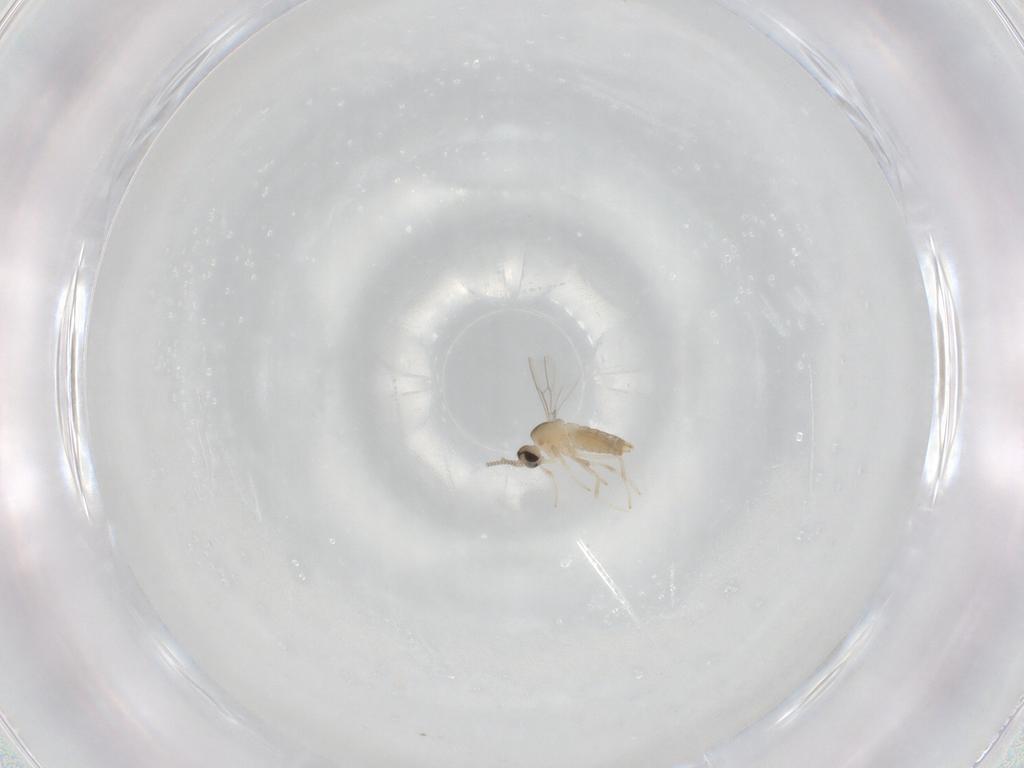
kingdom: Animalia
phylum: Arthropoda
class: Insecta
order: Diptera
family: Cecidomyiidae
